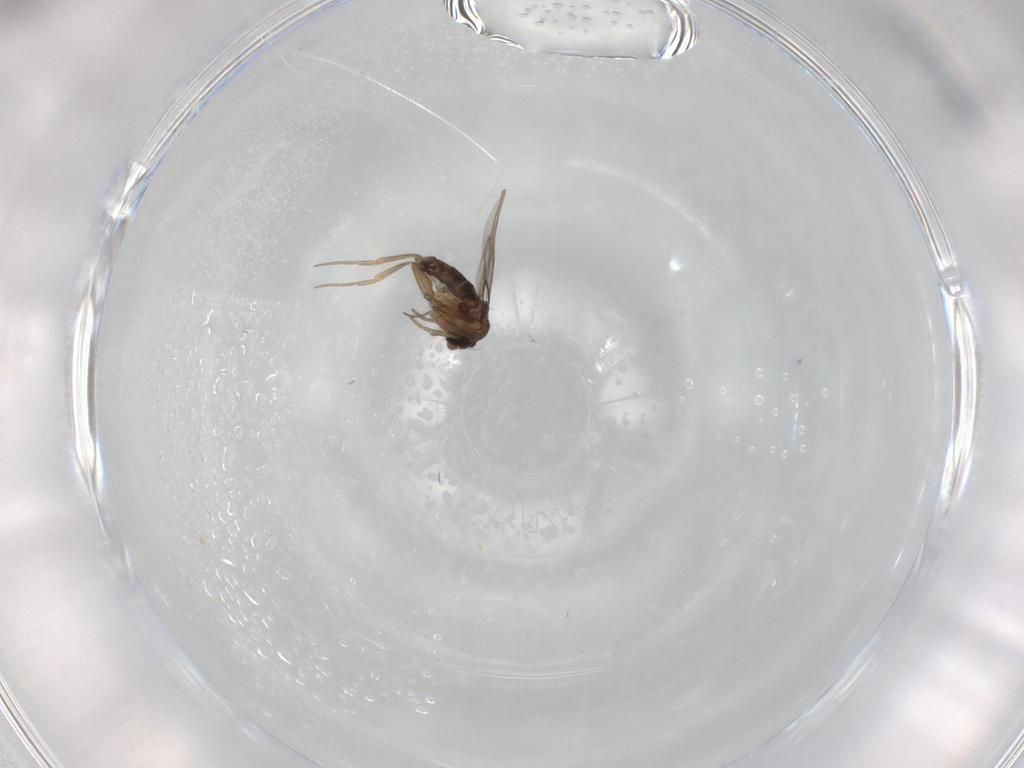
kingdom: Animalia
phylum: Arthropoda
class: Insecta
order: Diptera
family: Phoridae
